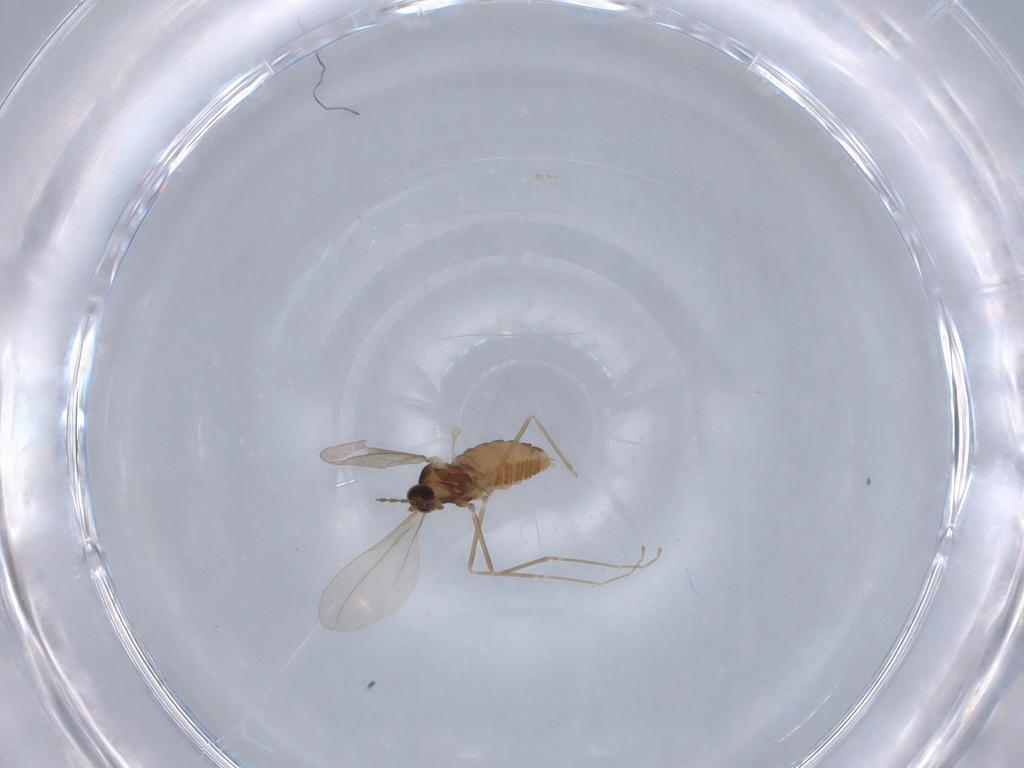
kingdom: Animalia
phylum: Arthropoda
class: Insecta
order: Diptera
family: Cecidomyiidae
